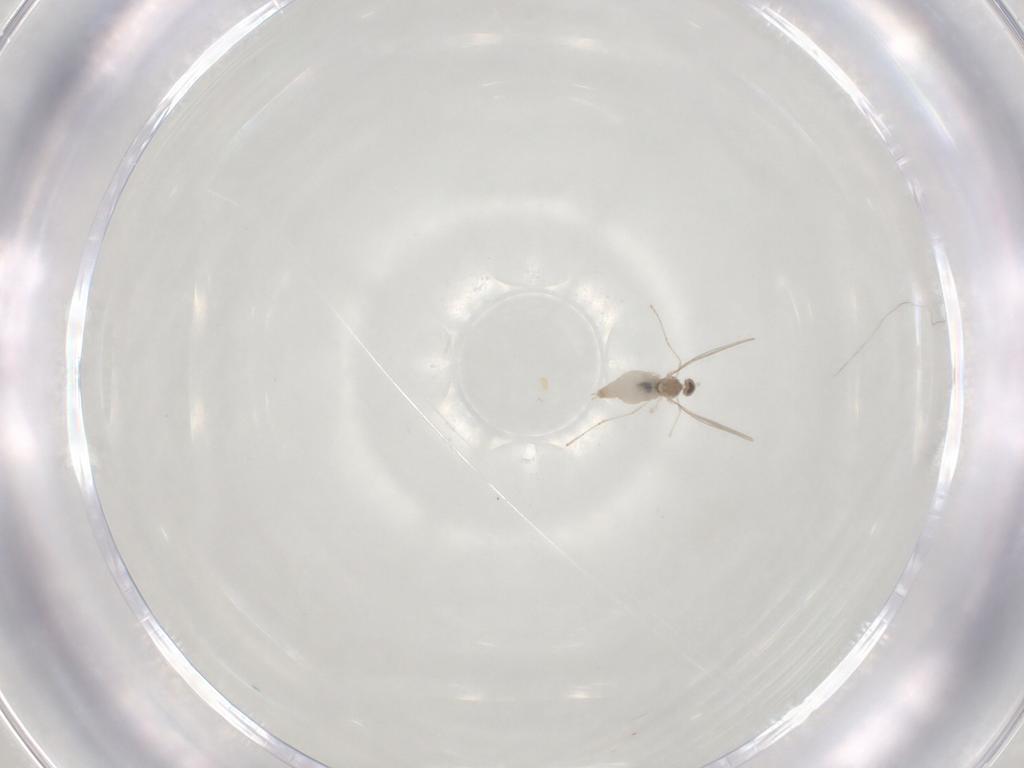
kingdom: Animalia
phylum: Arthropoda
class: Insecta
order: Diptera
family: Cecidomyiidae
